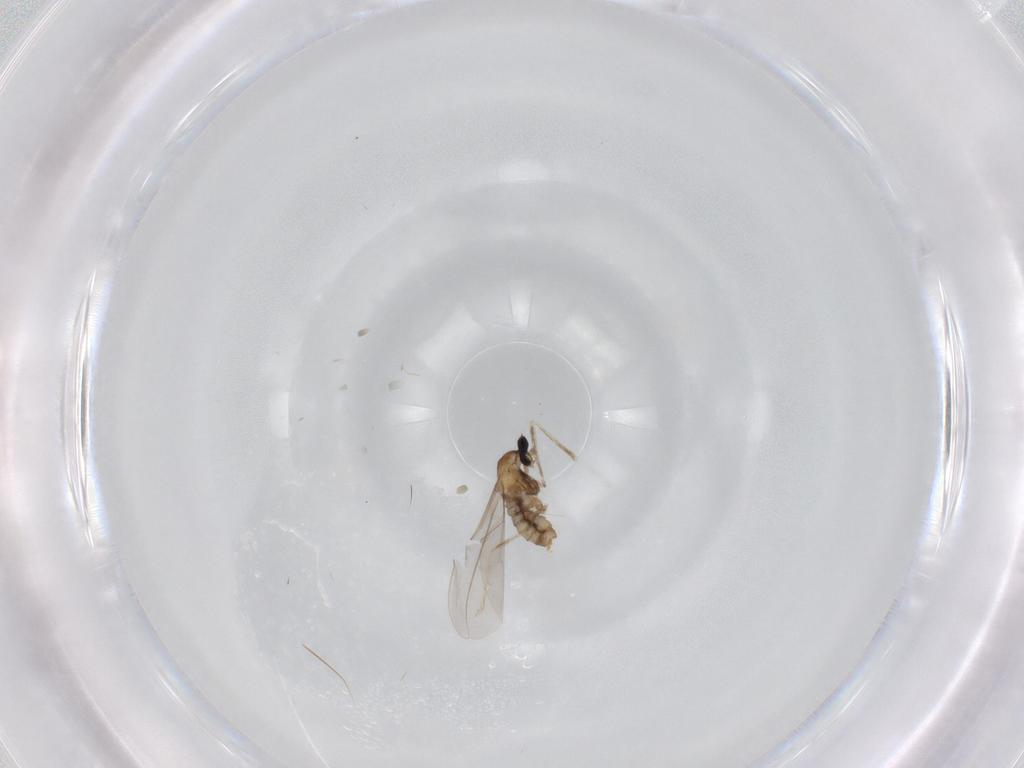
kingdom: Animalia
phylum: Arthropoda
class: Insecta
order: Diptera
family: Cecidomyiidae
